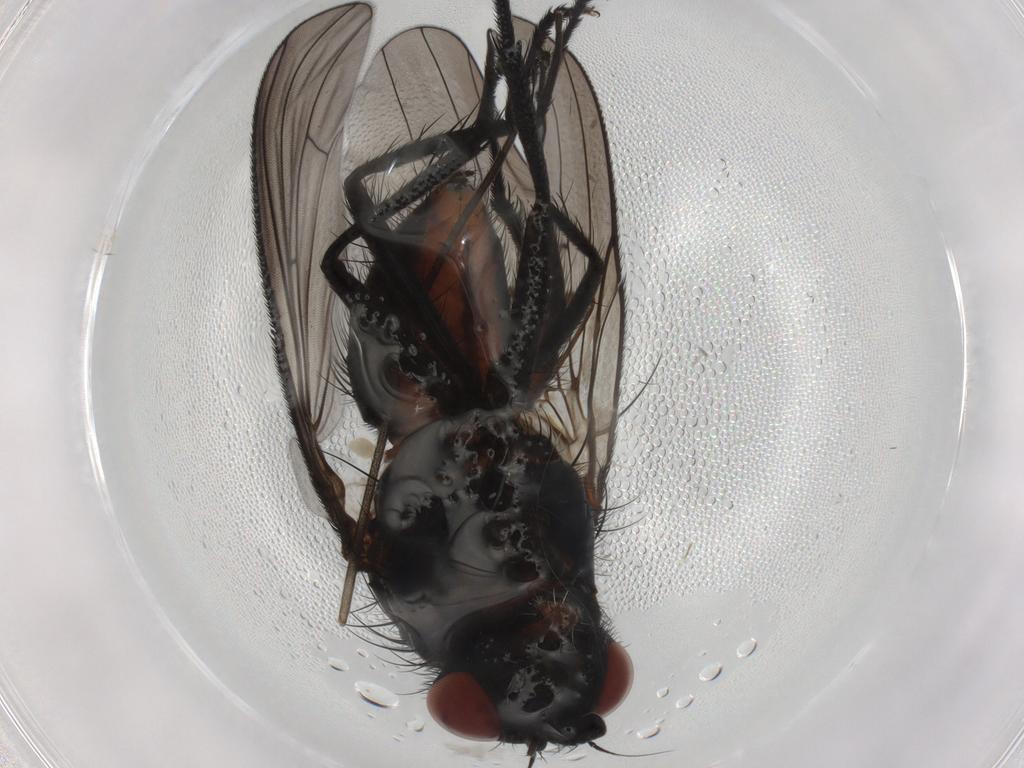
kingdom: Animalia
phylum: Arthropoda
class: Insecta
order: Diptera
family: Anthomyiidae
